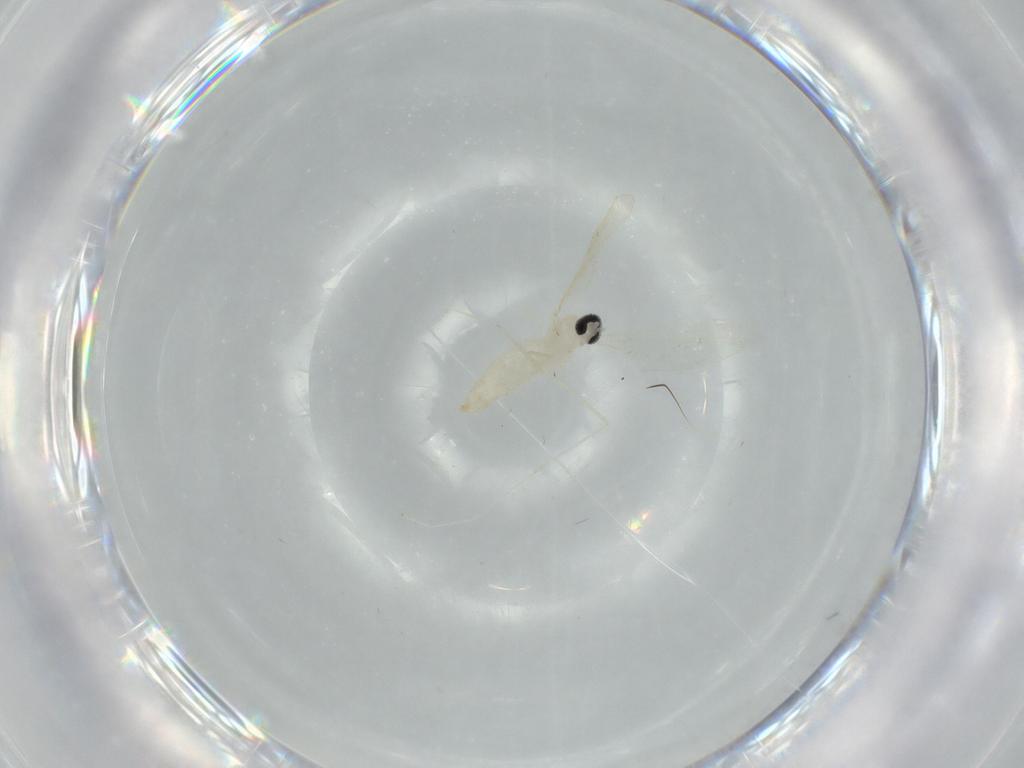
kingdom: Animalia
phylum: Arthropoda
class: Insecta
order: Diptera
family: Cecidomyiidae
